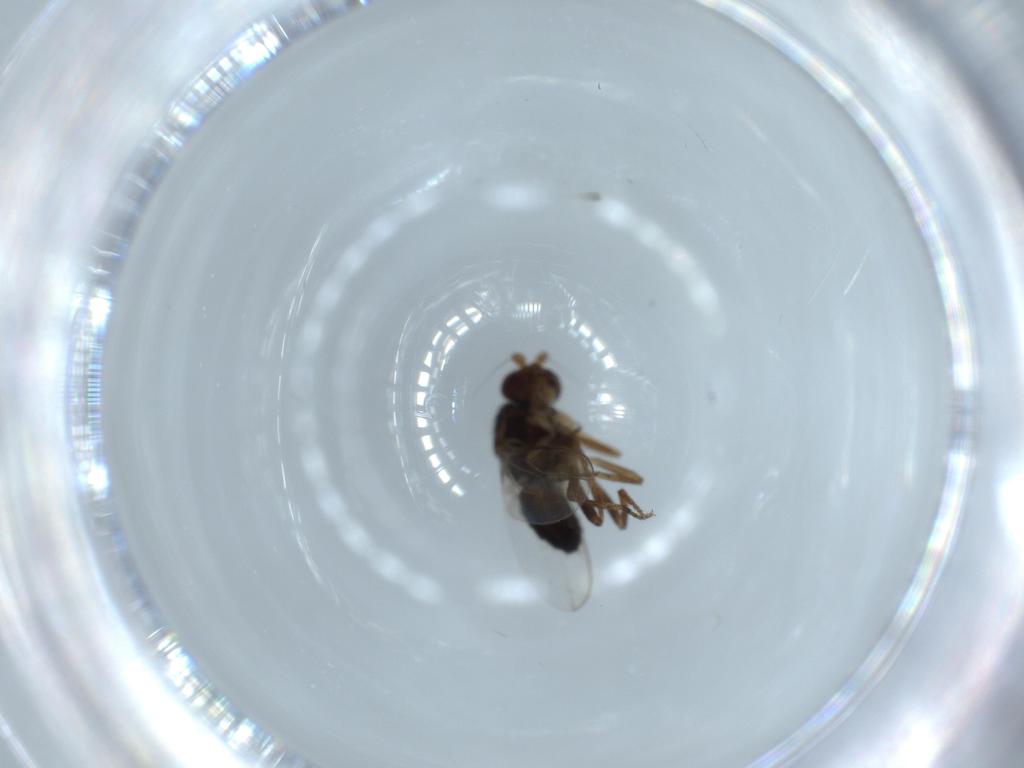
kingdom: Animalia
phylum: Arthropoda
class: Insecta
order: Diptera
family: Sphaeroceridae
